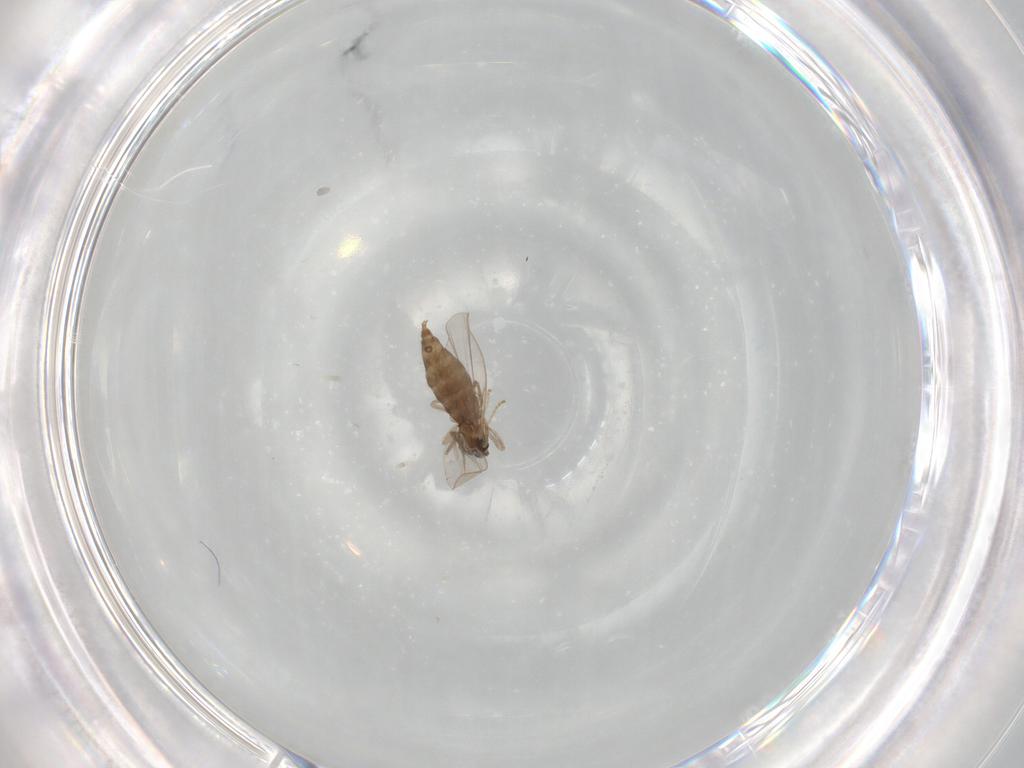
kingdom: Animalia
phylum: Arthropoda
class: Insecta
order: Diptera
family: Cecidomyiidae
